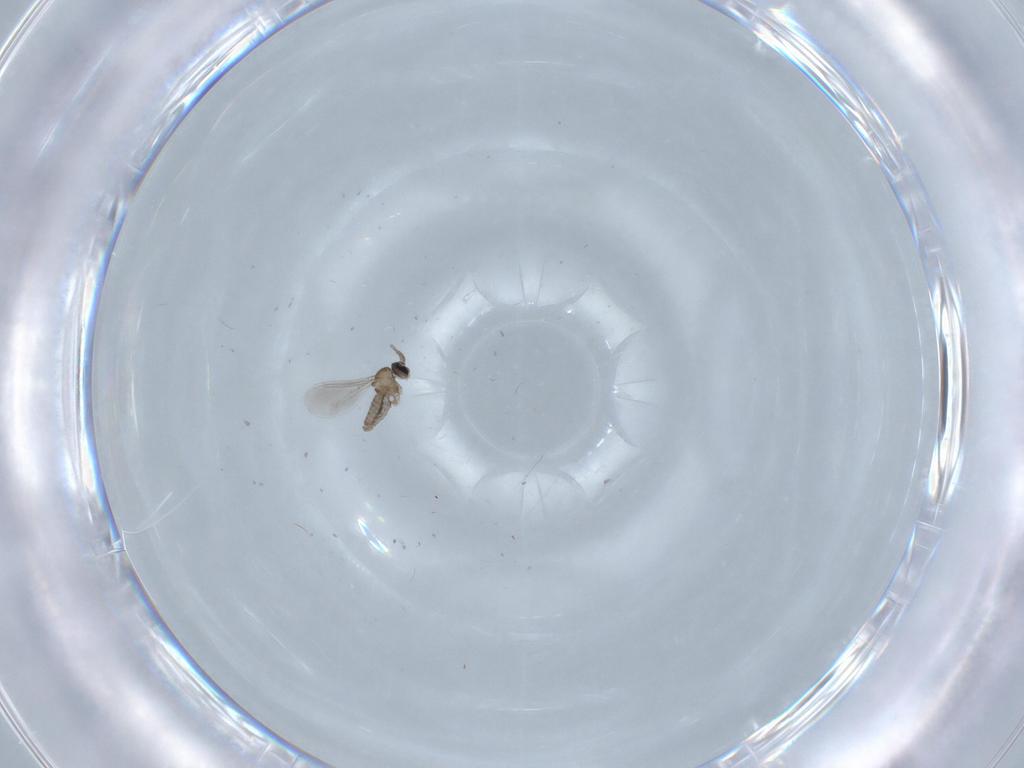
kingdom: Animalia
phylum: Arthropoda
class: Insecta
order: Diptera
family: Cecidomyiidae
